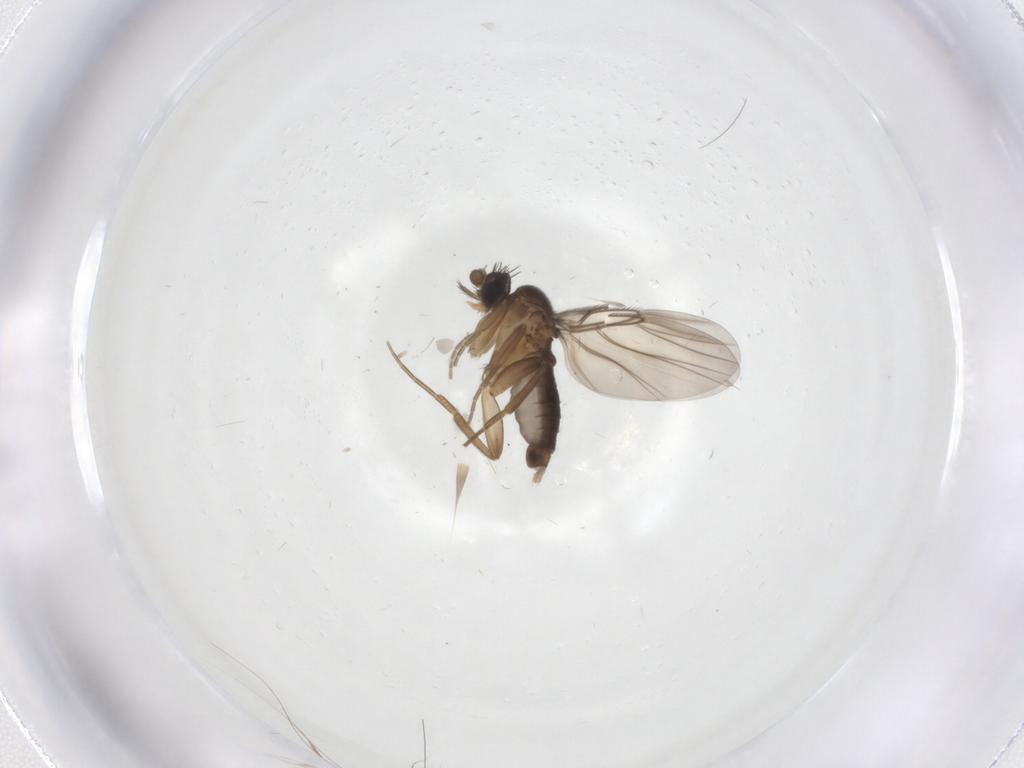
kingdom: Animalia
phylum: Arthropoda
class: Insecta
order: Diptera
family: Phoridae
